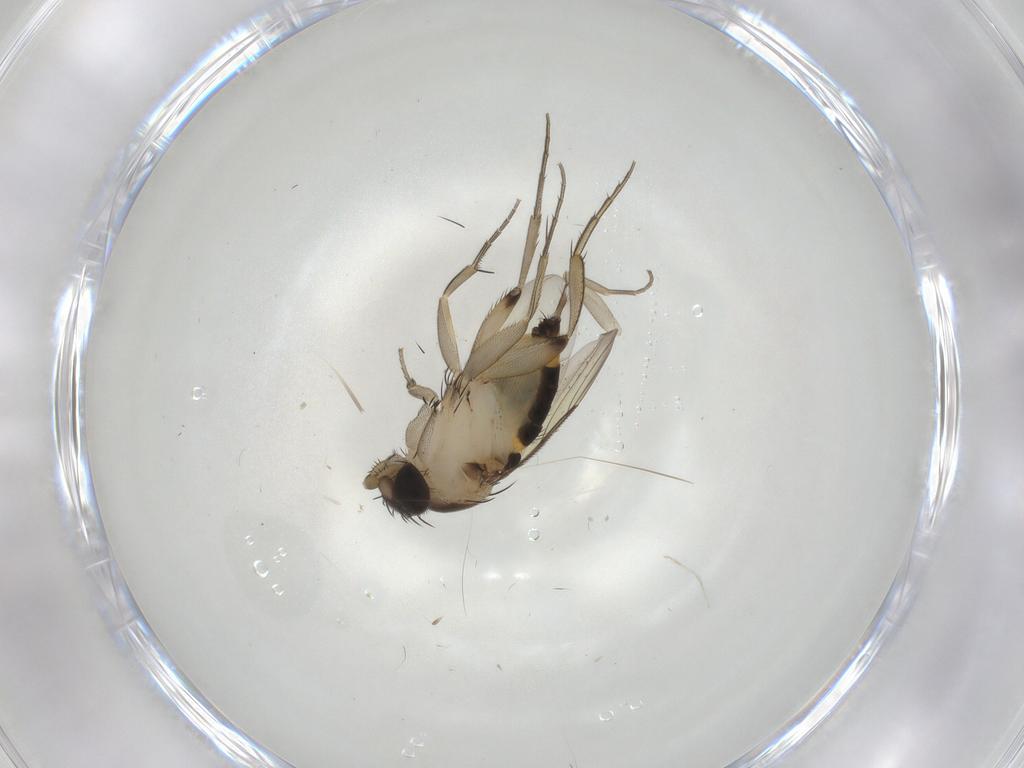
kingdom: Animalia
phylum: Arthropoda
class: Insecta
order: Diptera
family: Phoridae
